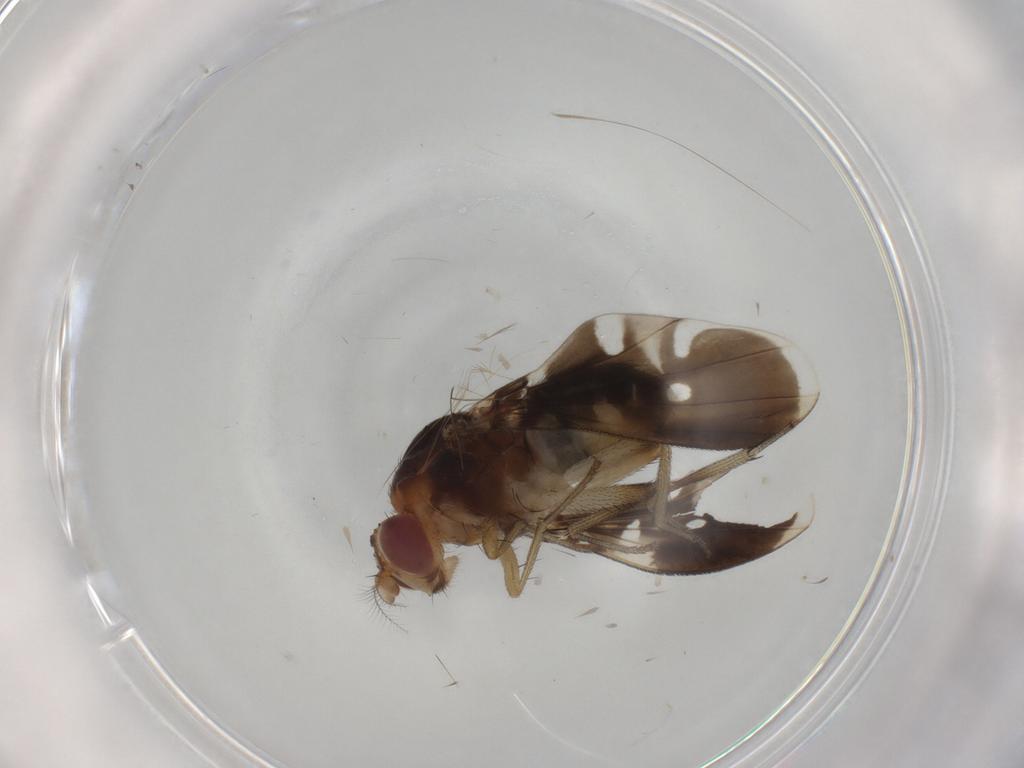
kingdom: Animalia
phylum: Arthropoda
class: Insecta
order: Diptera
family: Lauxaniidae
